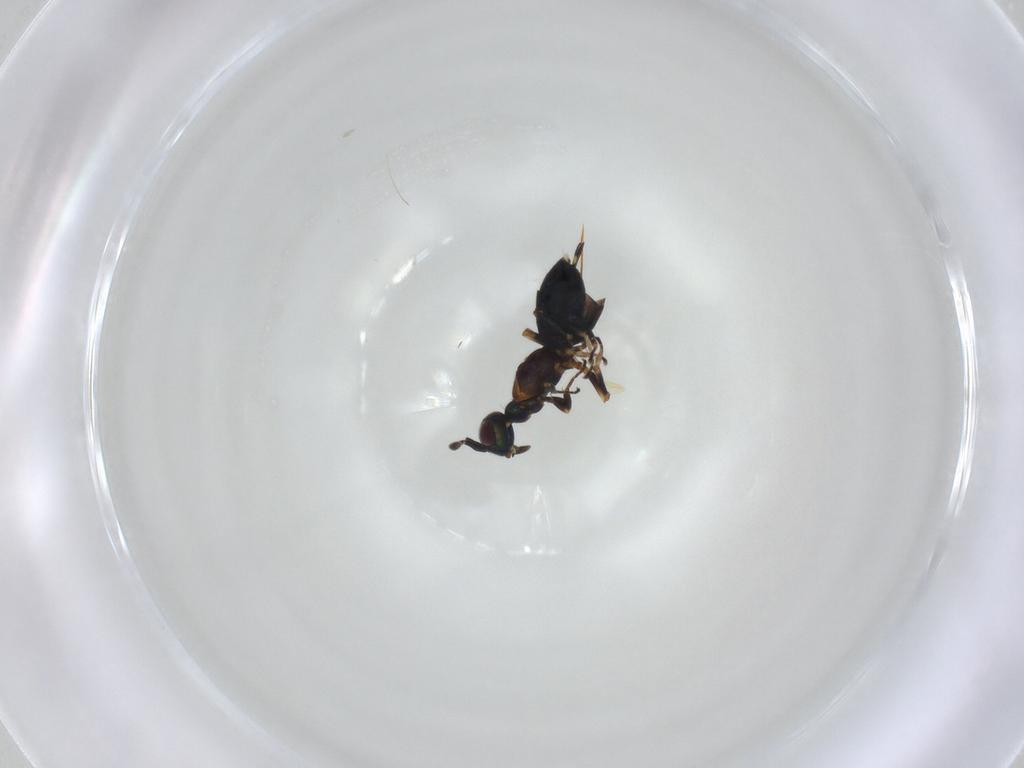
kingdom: Animalia
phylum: Arthropoda
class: Insecta
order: Hymenoptera
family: Eupelmidae
